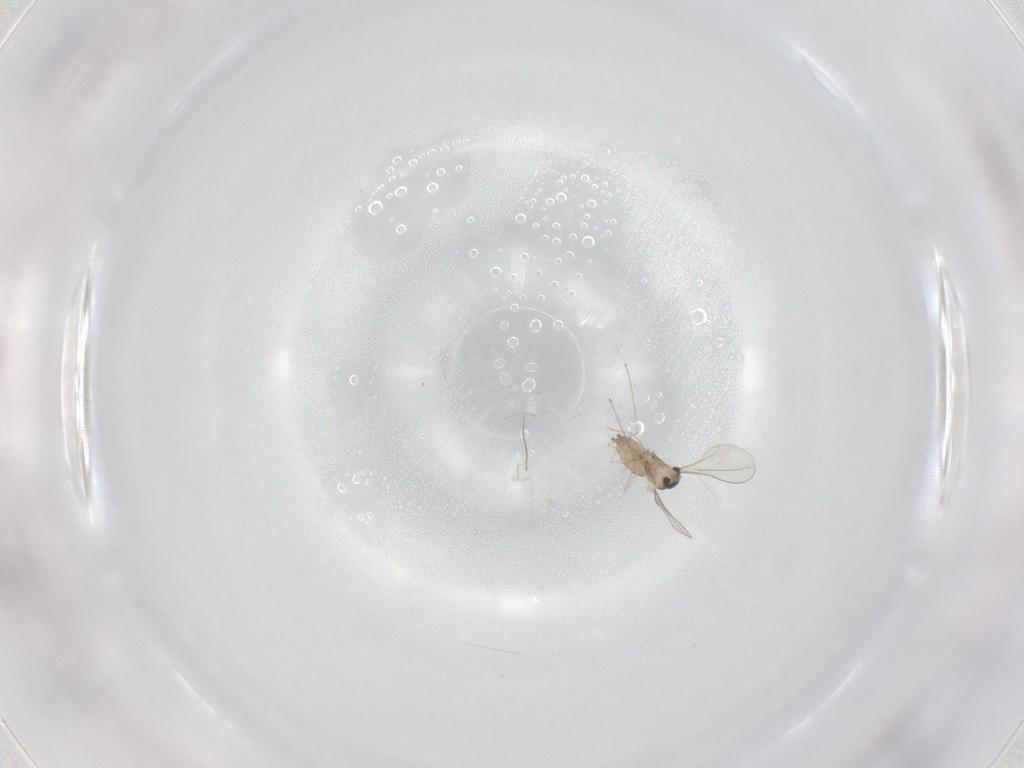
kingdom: Animalia
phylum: Arthropoda
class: Insecta
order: Diptera
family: Cecidomyiidae
